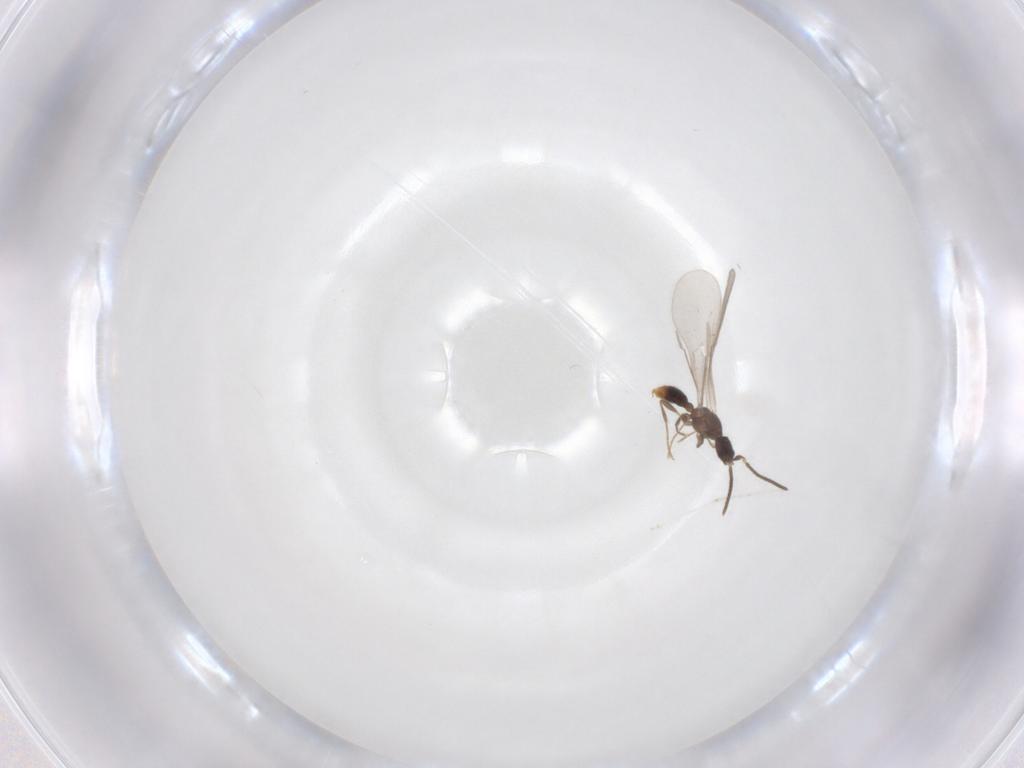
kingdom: Animalia
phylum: Arthropoda
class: Insecta
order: Hymenoptera
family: Formicidae
